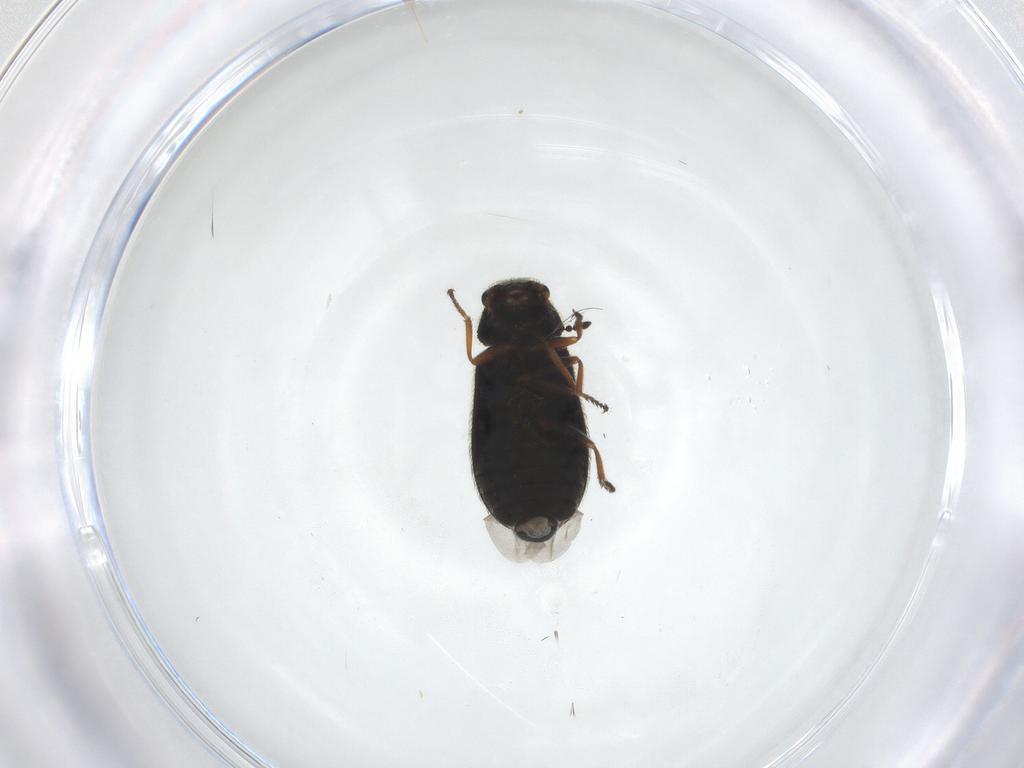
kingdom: Animalia
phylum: Arthropoda
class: Insecta
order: Coleoptera
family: Melyridae
